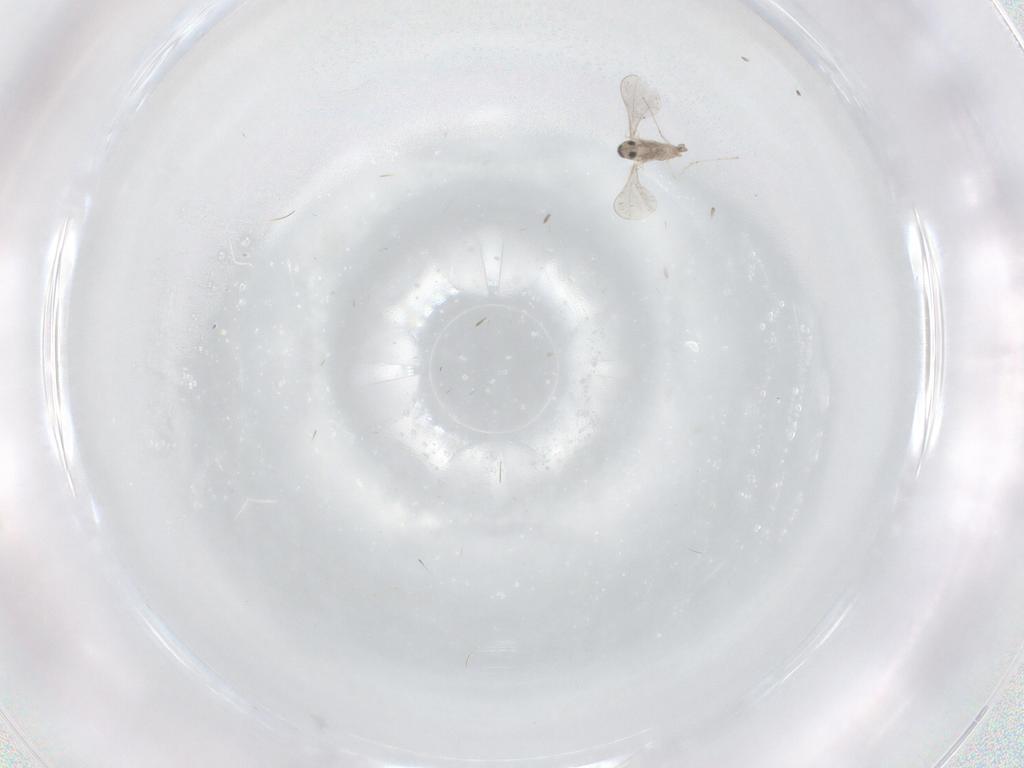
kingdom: Animalia
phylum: Arthropoda
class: Insecta
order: Diptera
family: Cecidomyiidae
